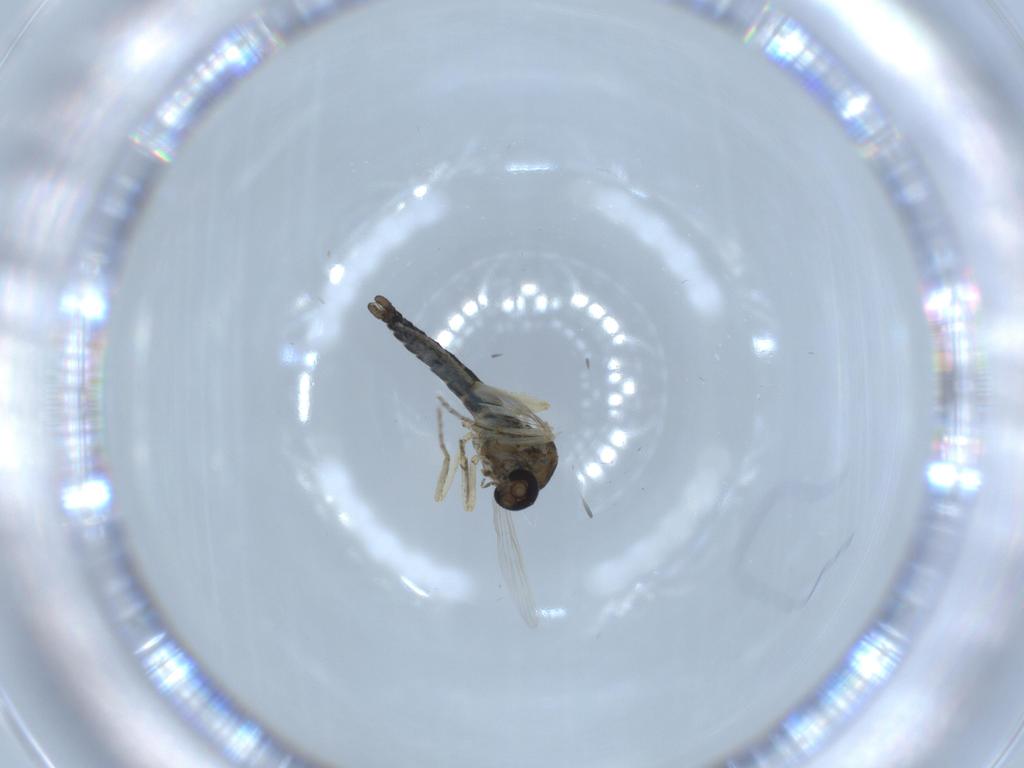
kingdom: Animalia
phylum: Arthropoda
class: Insecta
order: Diptera
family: Ceratopogonidae
